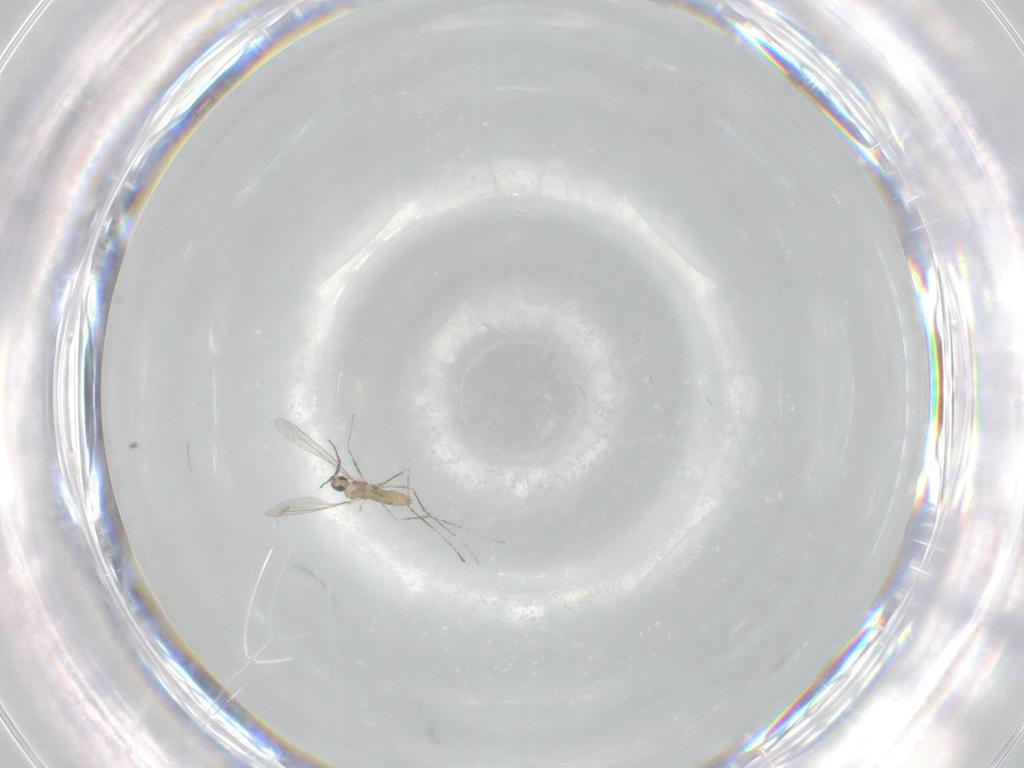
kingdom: Animalia
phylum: Arthropoda
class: Insecta
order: Diptera
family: Cecidomyiidae
